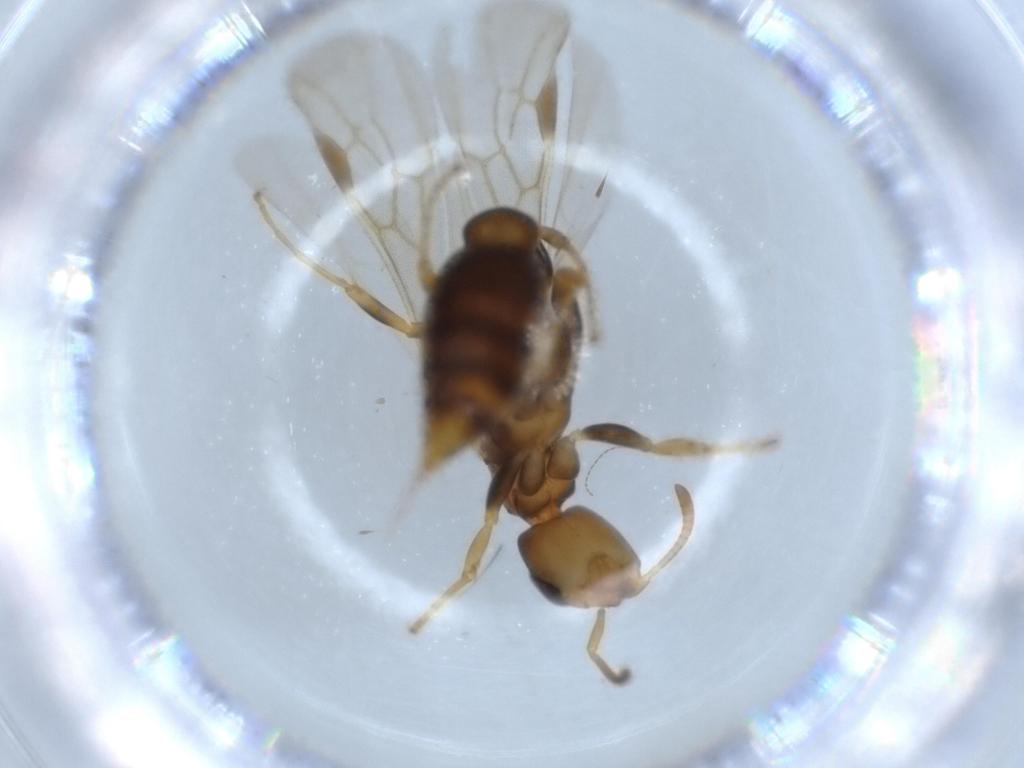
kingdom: Animalia
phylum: Arthropoda
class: Insecta
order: Hymenoptera
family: Formicidae
